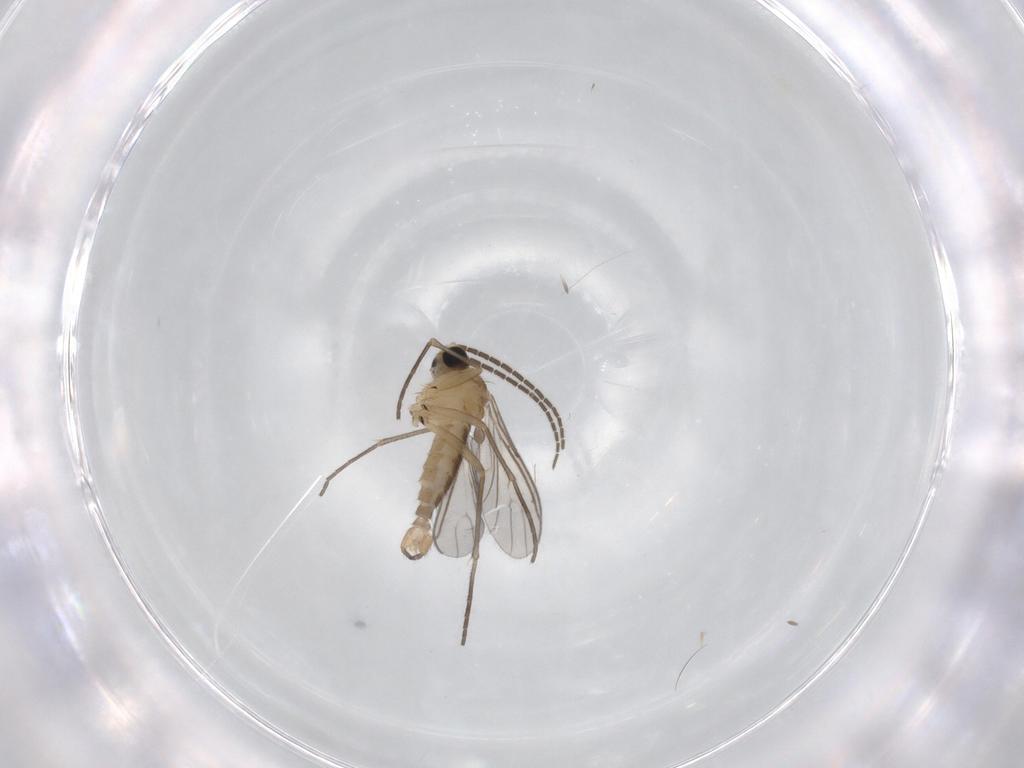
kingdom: Animalia
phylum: Arthropoda
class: Insecta
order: Diptera
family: Sciaridae
